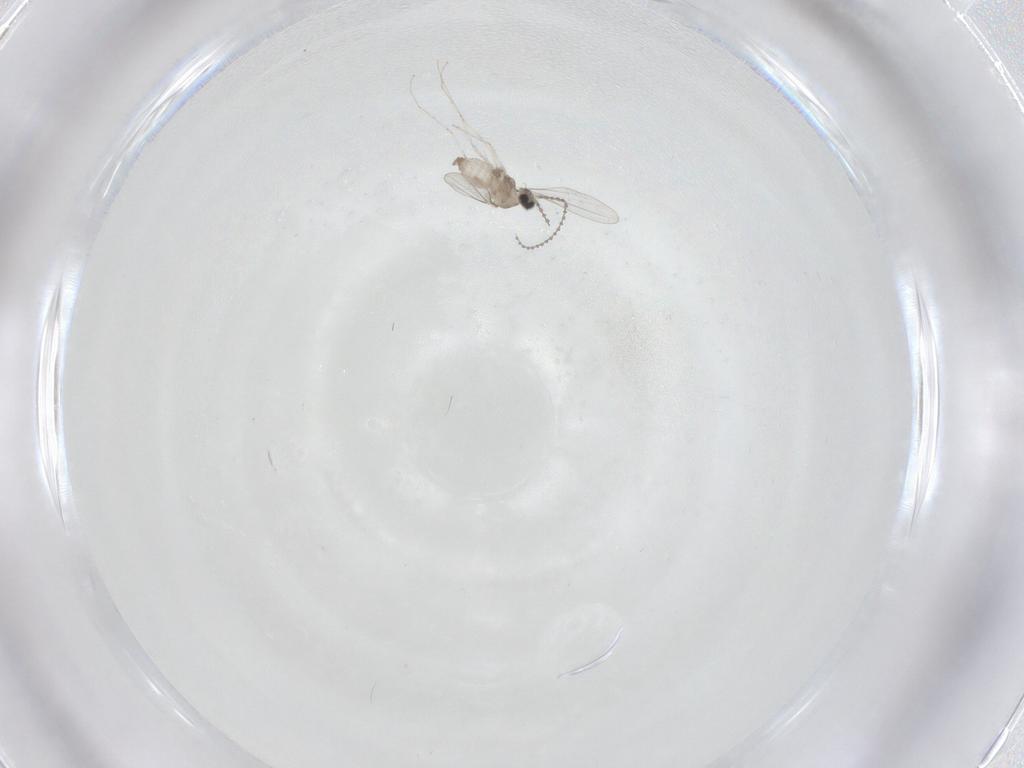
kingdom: Animalia
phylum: Arthropoda
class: Insecta
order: Diptera
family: Cecidomyiidae
